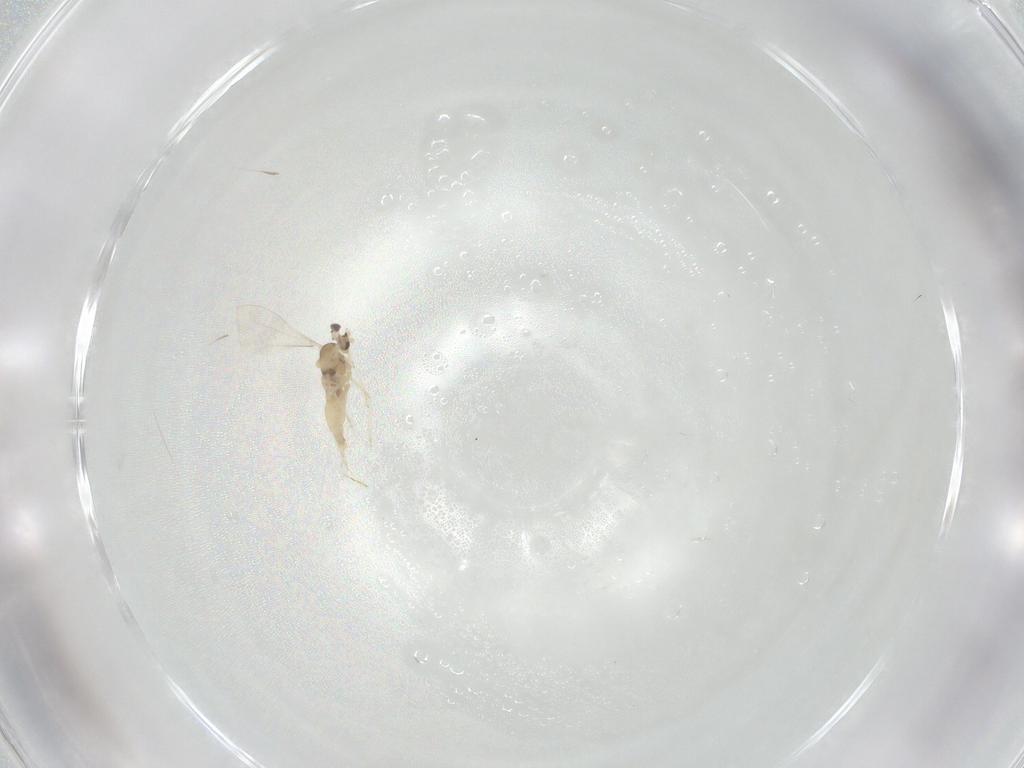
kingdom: Animalia
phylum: Arthropoda
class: Insecta
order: Diptera
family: Cecidomyiidae
